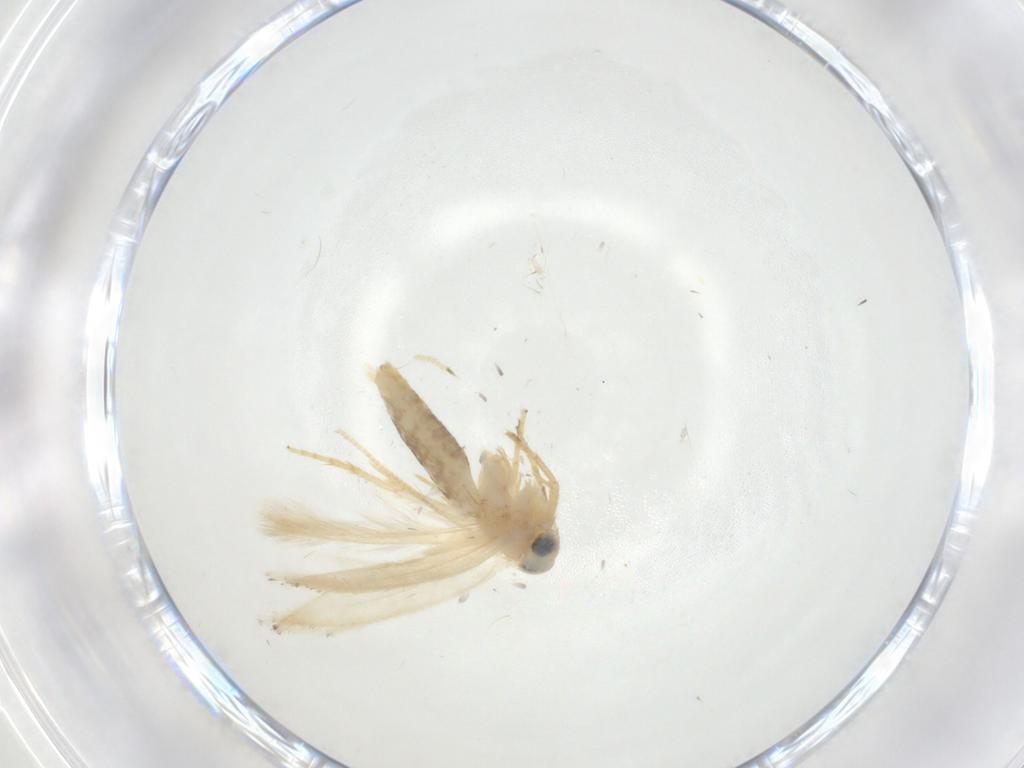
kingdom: Animalia
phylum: Arthropoda
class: Insecta
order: Lepidoptera
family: Opostegidae
